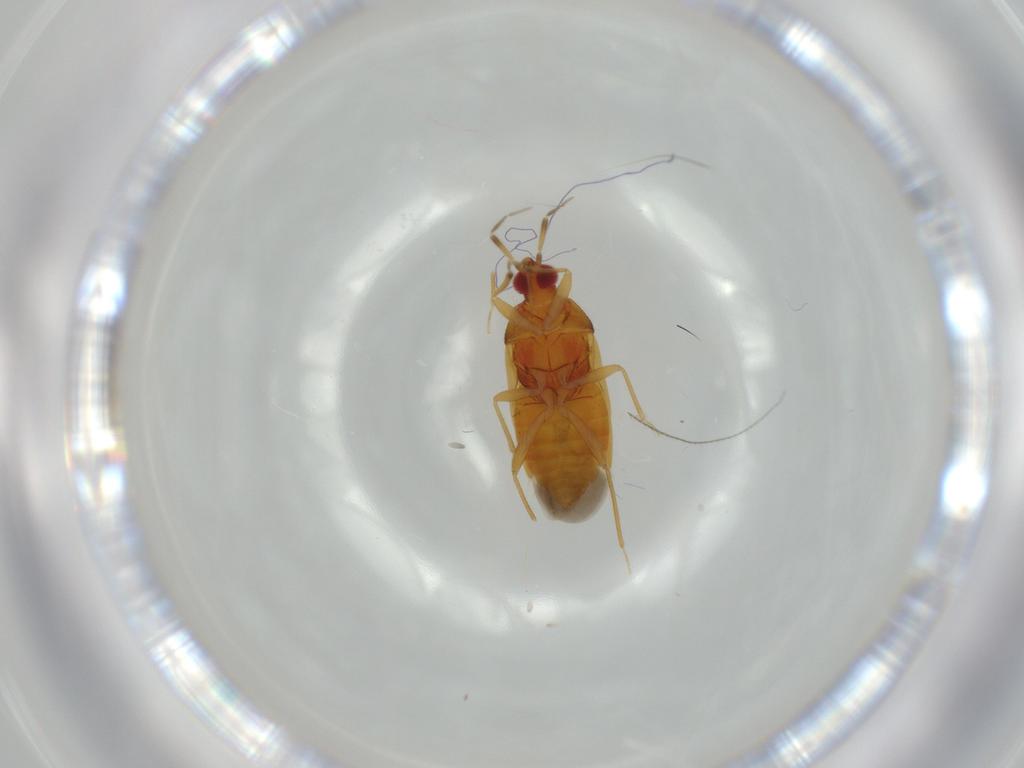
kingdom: Animalia
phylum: Arthropoda
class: Insecta
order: Hemiptera
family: Anthocoridae
